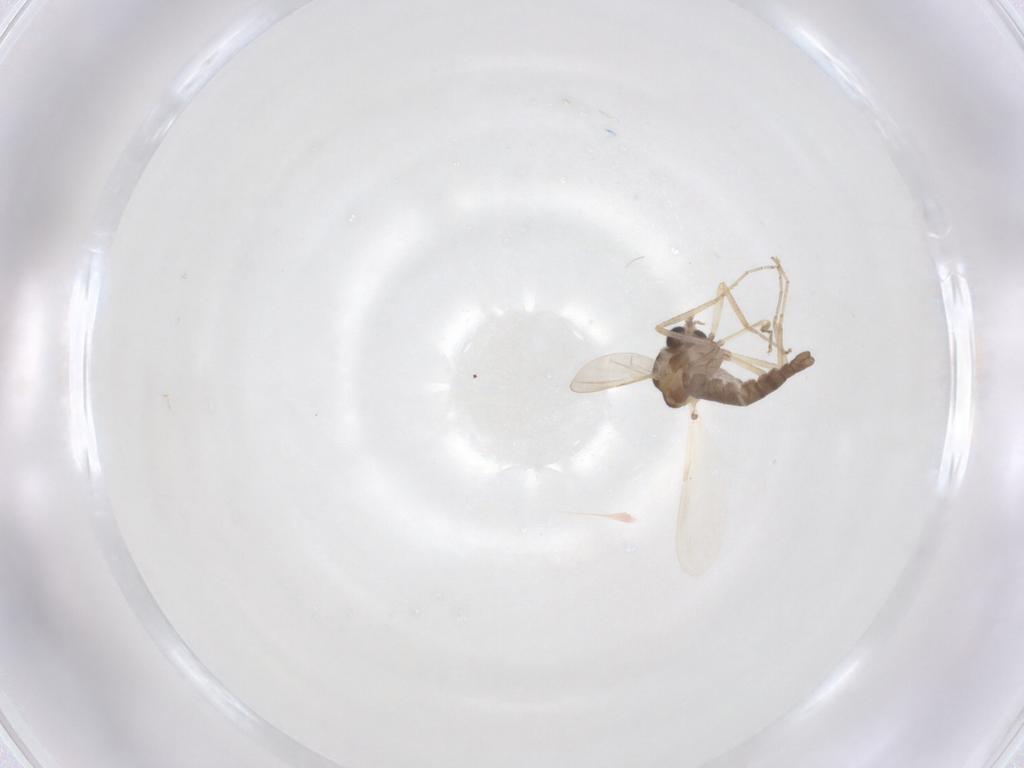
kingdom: Animalia
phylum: Arthropoda
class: Insecta
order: Diptera
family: Ceratopogonidae
